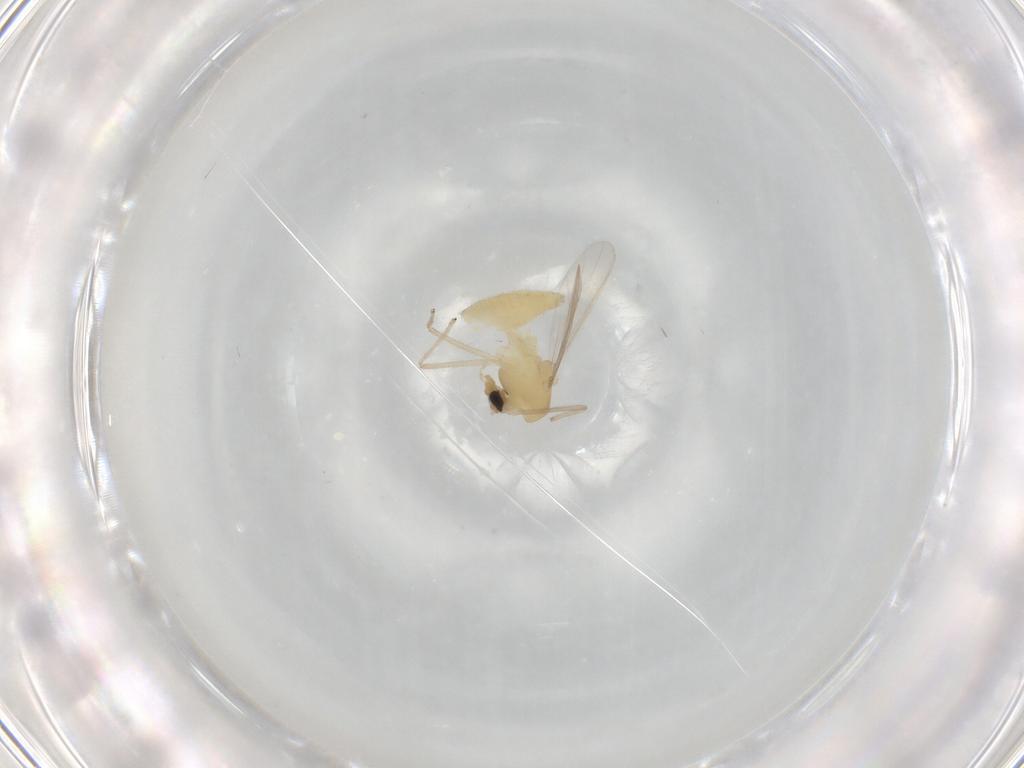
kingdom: Animalia
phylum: Arthropoda
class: Insecta
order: Diptera
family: Chironomidae
